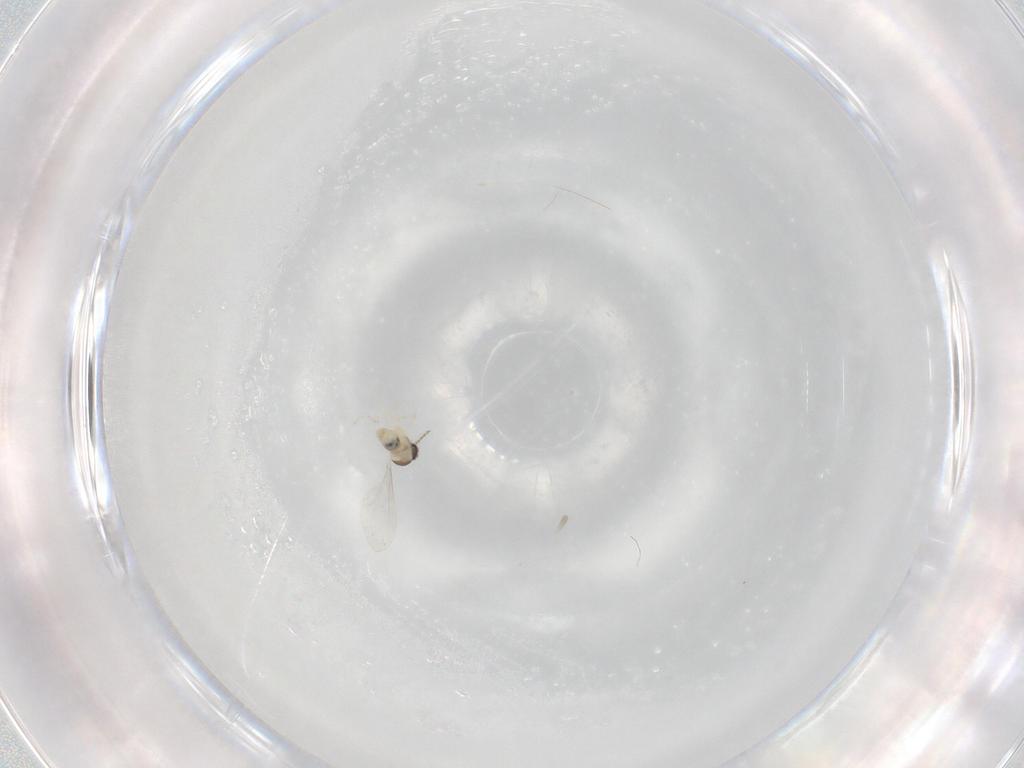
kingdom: Animalia
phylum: Arthropoda
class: Insecta
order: Diptera
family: Cecidomyiidae
